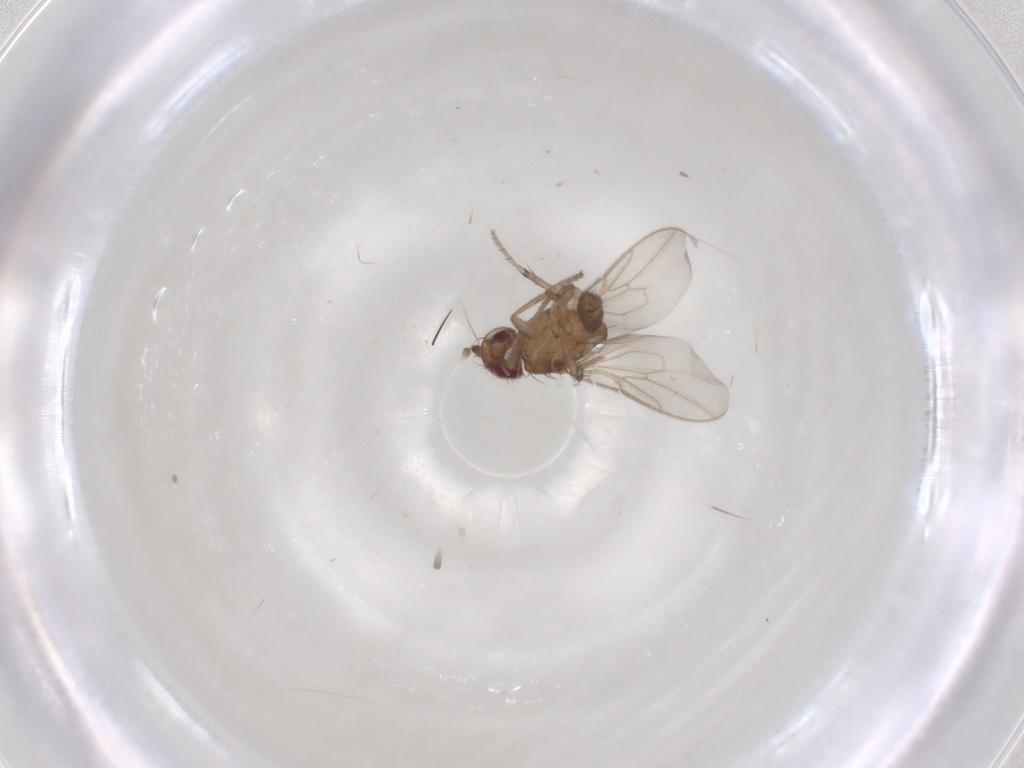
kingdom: Animalia
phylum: Arthropoda
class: Insecta
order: Diptera
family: Sphaeroceridae
